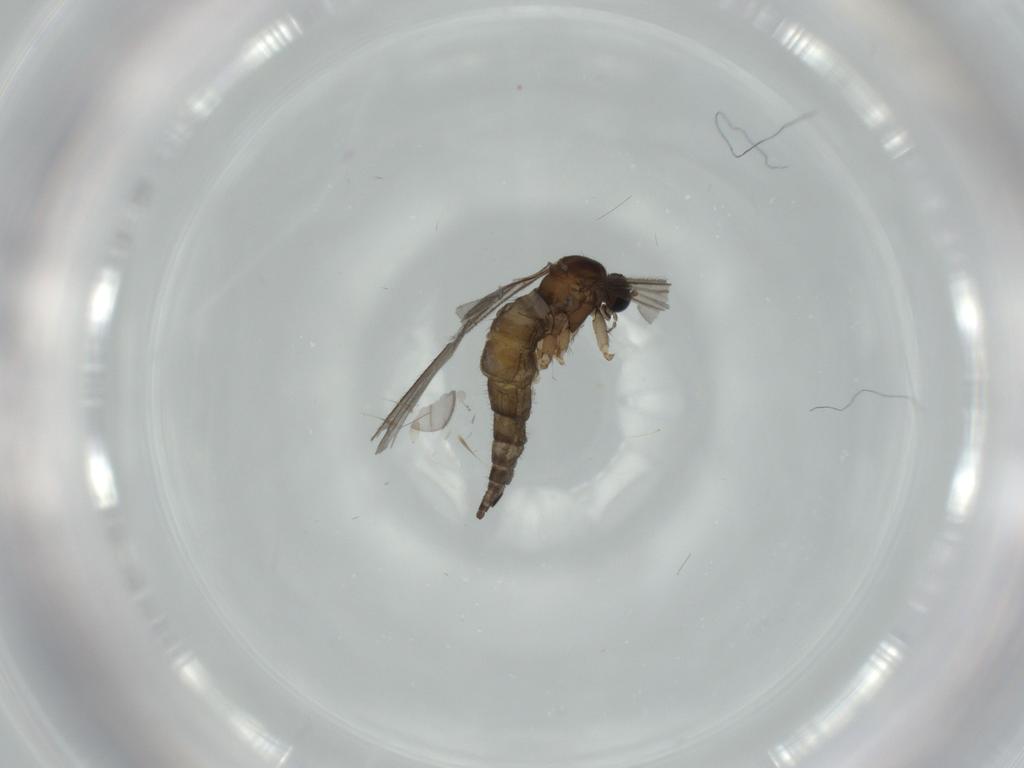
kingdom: Animalia
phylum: Arthropoda
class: Insecta
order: Diptera
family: Sciaridae
